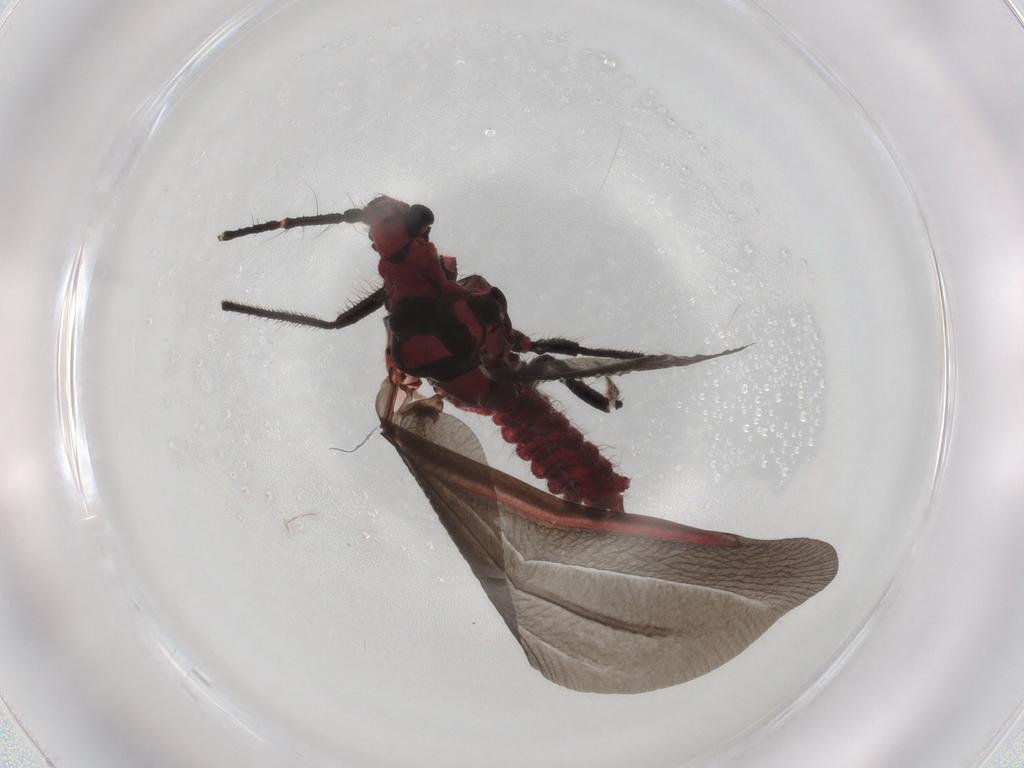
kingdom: Animalia
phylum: Arthropoda
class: Insecta
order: Hemiptera
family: Monophlebidae
